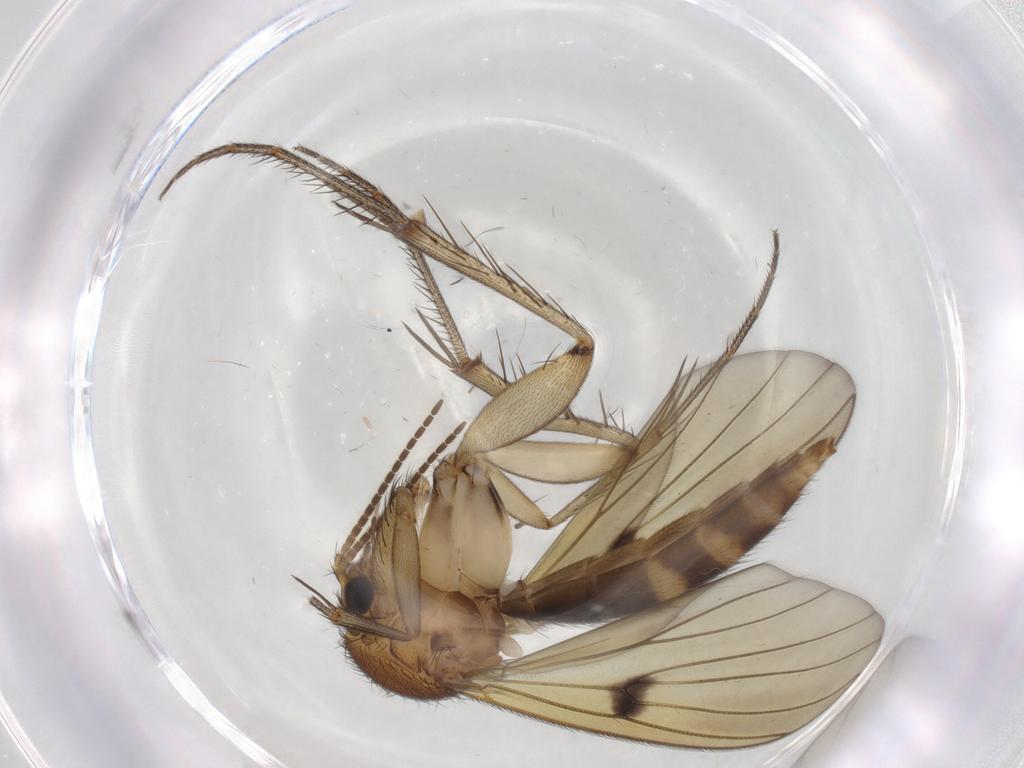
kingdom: Animalia
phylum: Arthropoda
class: Insecta
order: Diptera
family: Mycetophilidae
